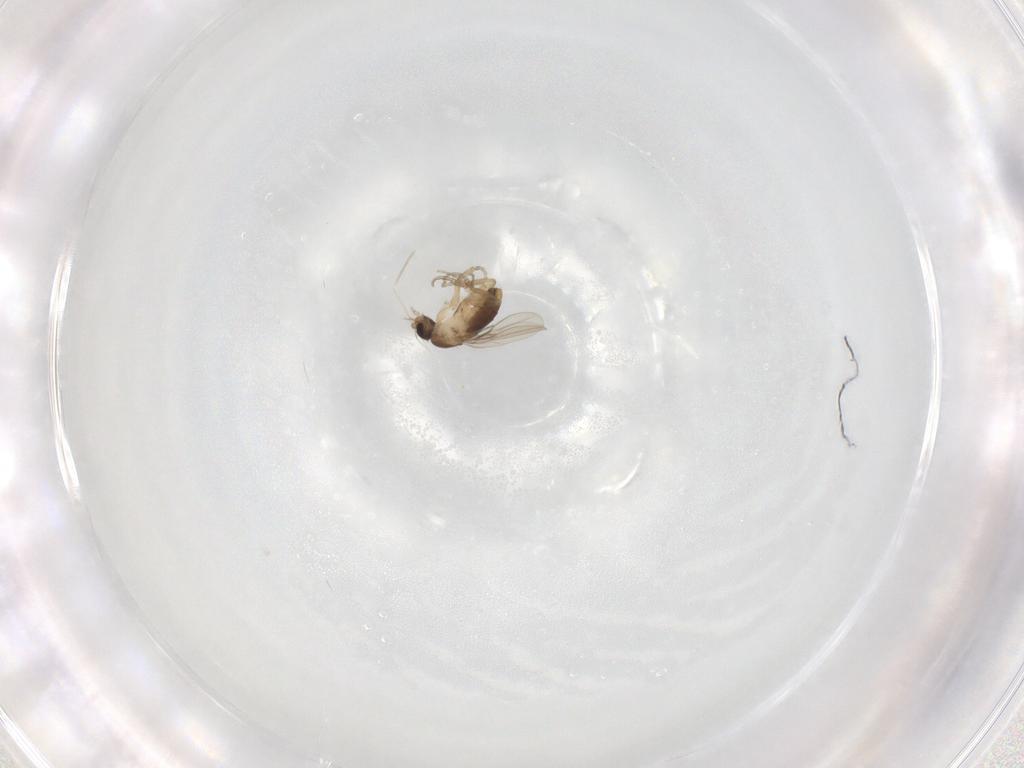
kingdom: Animalia
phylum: Arthropoda
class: Insecta
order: Diptera
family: Phoridae
